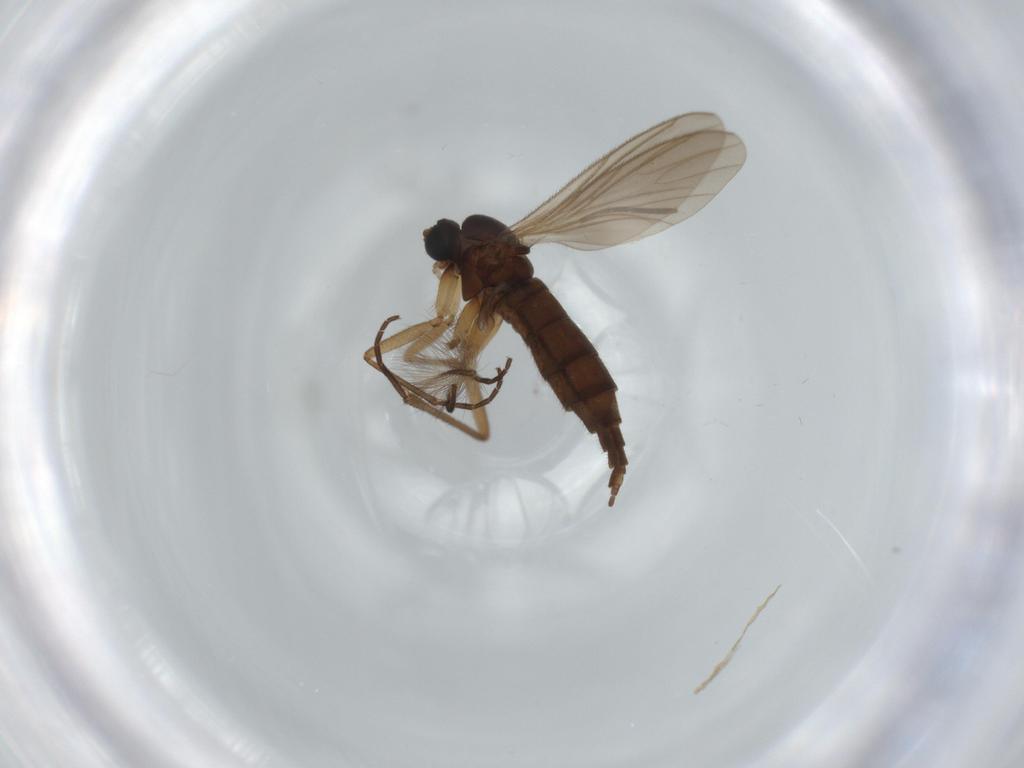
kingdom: Animalia
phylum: Arthropoda
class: Insecta
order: Diptera
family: Sciaridae
